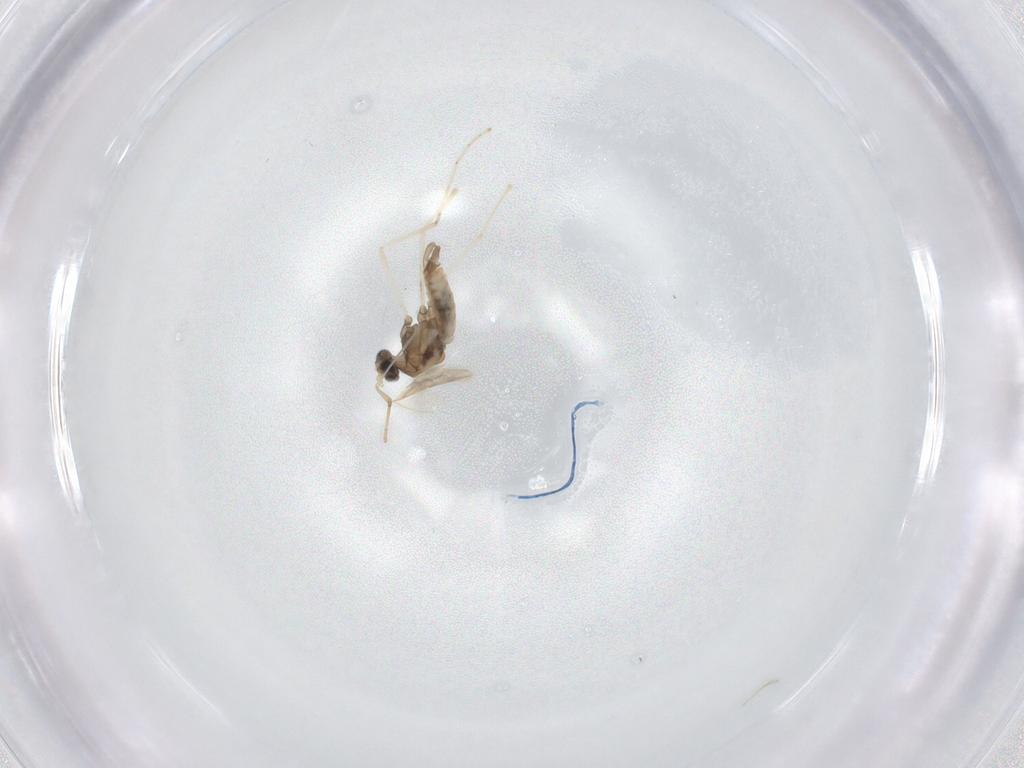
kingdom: Animalia
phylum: Arthropoda
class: Insecta
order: Diptera
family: Cecidomyiidae
